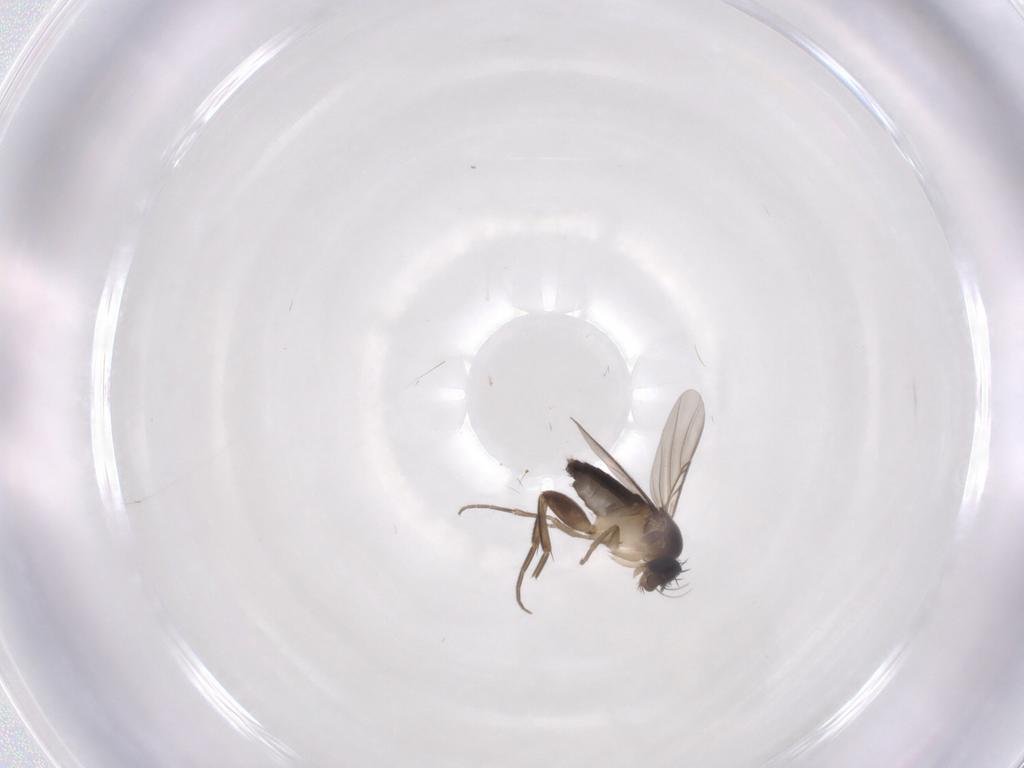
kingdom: Animalia
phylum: Arthropoda
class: Insecta
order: Diptera
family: Phoridae
